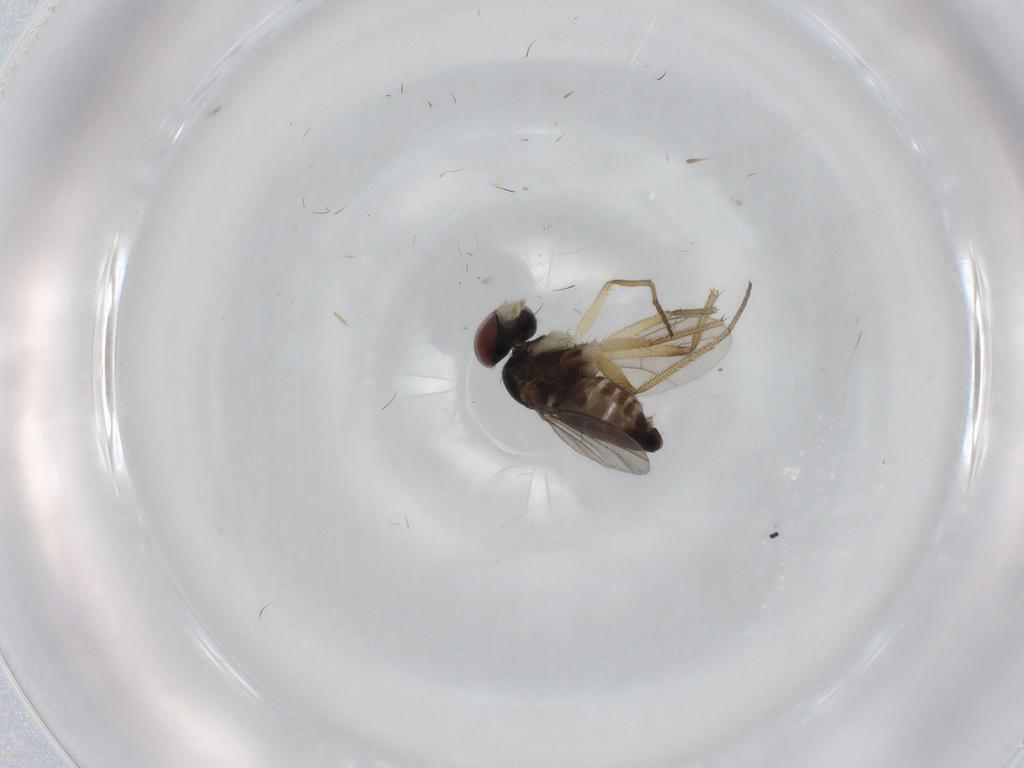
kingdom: Animalia
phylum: Arthropoda
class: Insecta
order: Diptera
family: Dolichopodidae
